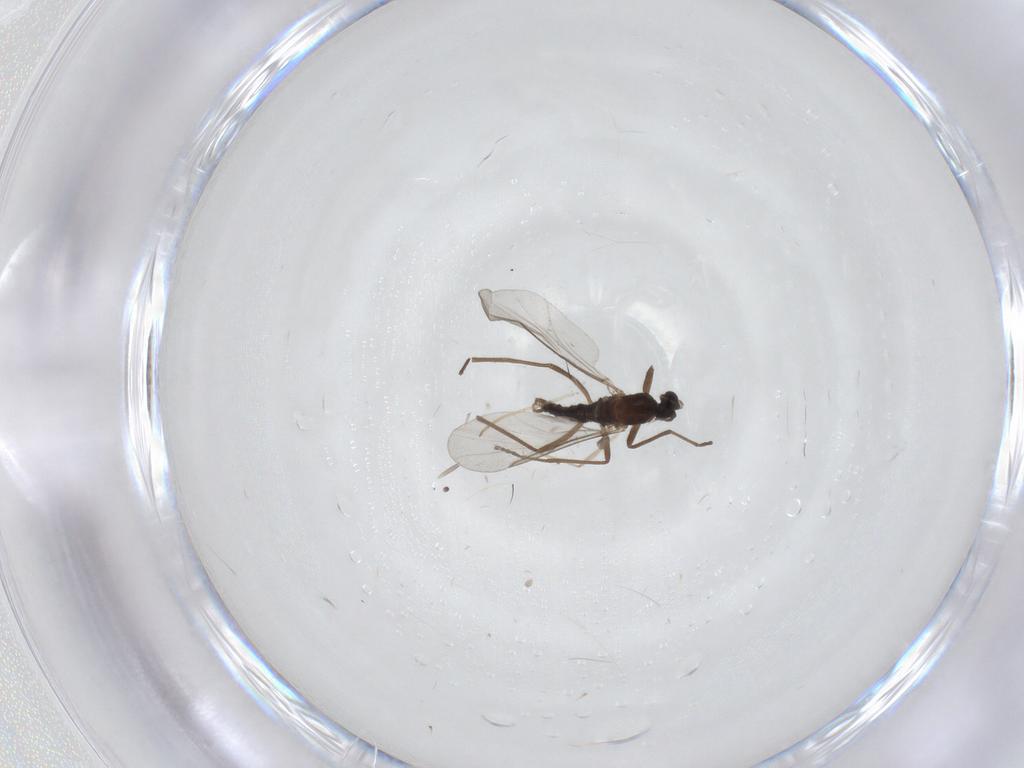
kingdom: Animalia
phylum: Arthropoda
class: Insecta
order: Diptera
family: Cecidomyiidae
